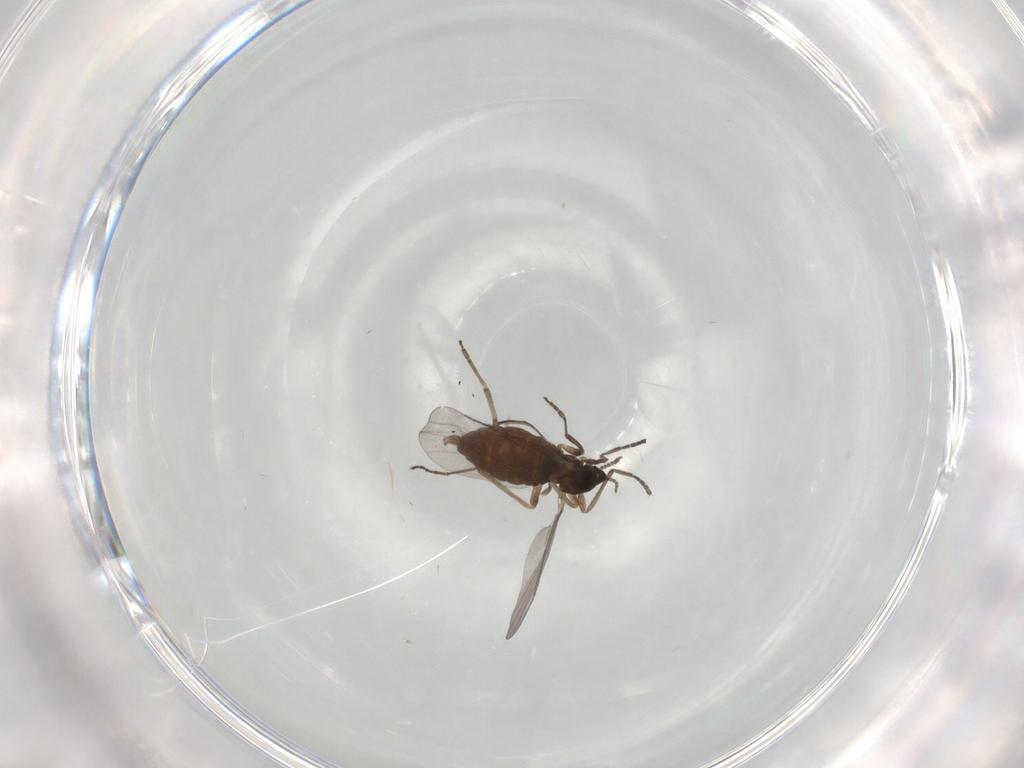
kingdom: Animalia
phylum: Arthropoda
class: Insecta
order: Diptera
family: Cecidomyiidae
